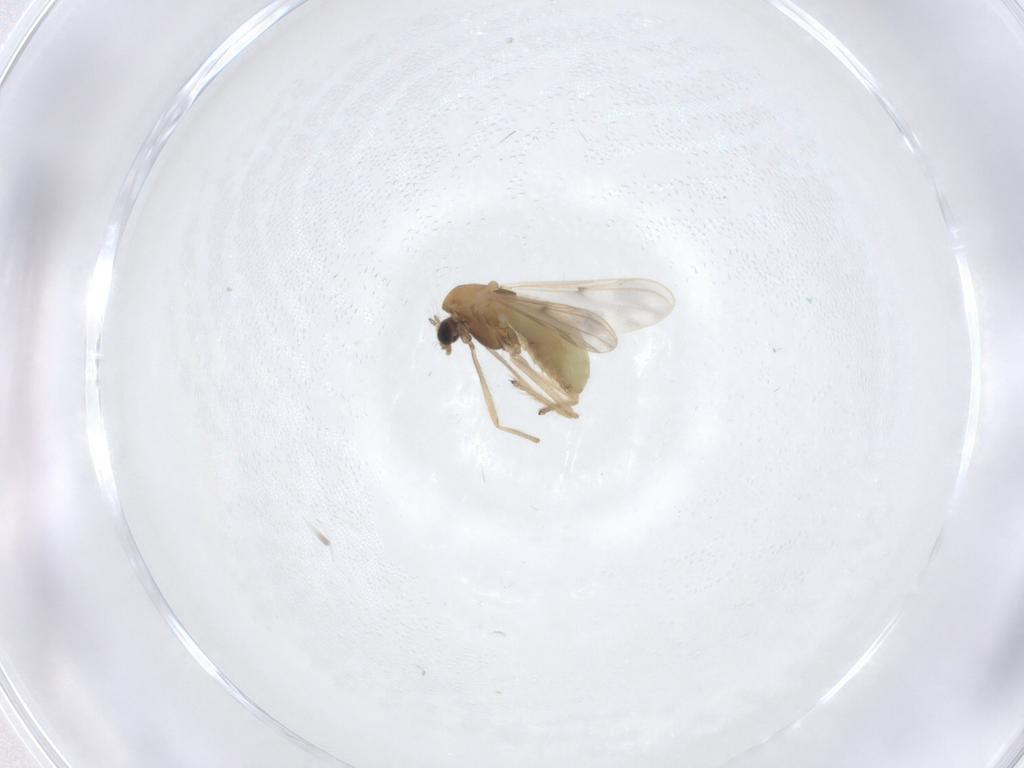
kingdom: Animalia
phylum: Arthropoda
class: Insecta
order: Diptera
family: Chironomidae
